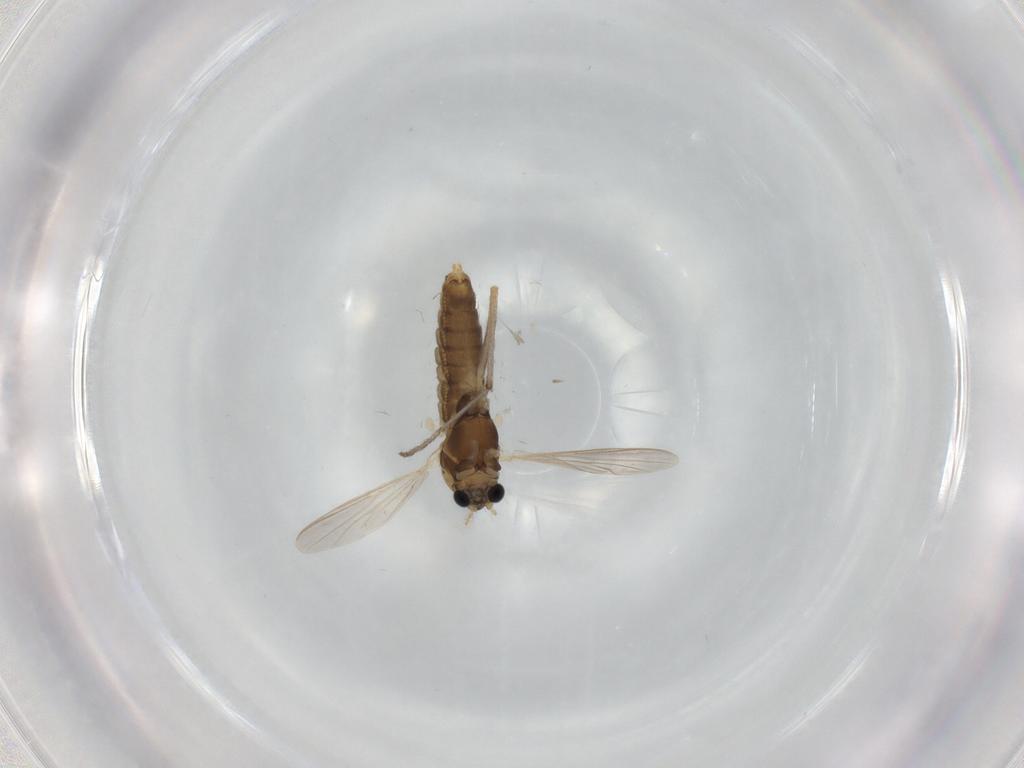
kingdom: Animalia
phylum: Arthropoda
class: Insecta
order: Diptera
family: Chironomidae
